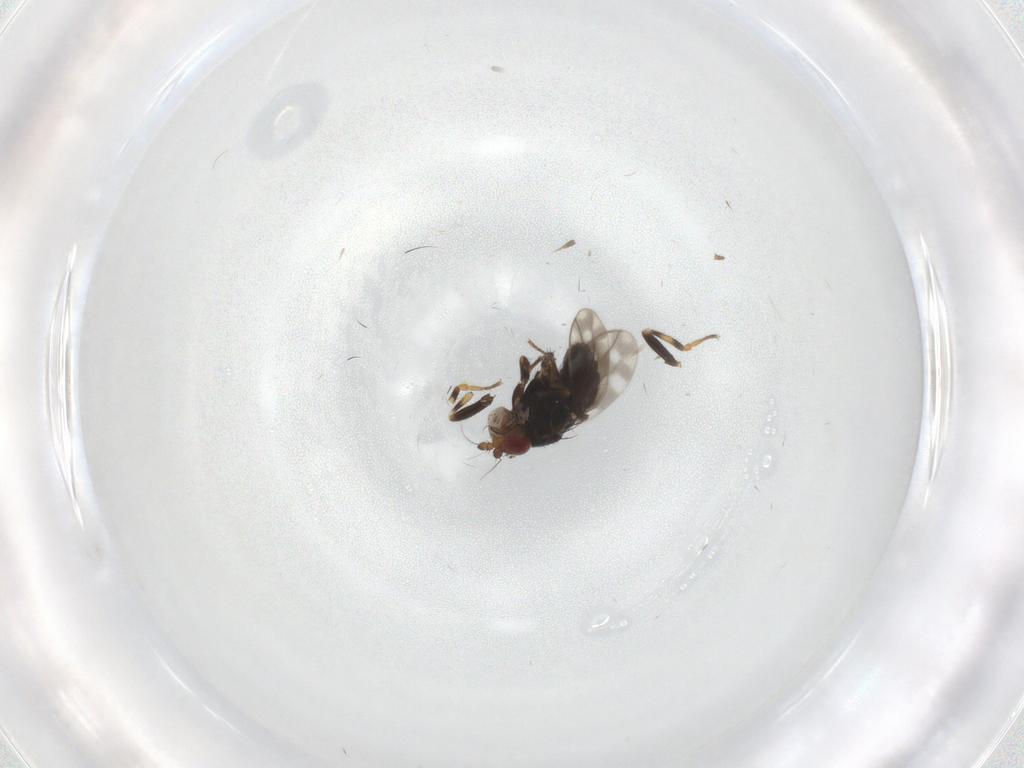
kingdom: Animalia
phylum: Arthropoda
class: Insecta
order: Diptera
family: Sphaeroceridae
